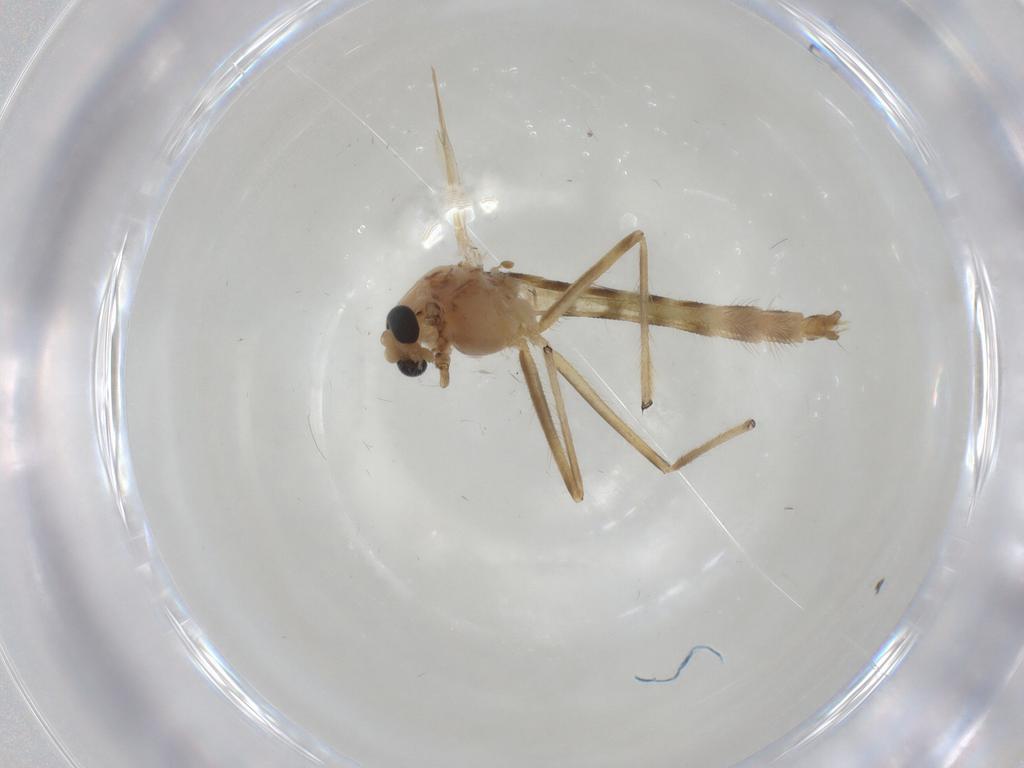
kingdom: Animalia
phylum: Arthropoda
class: Insecta
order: Diptera
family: Chironomidae
